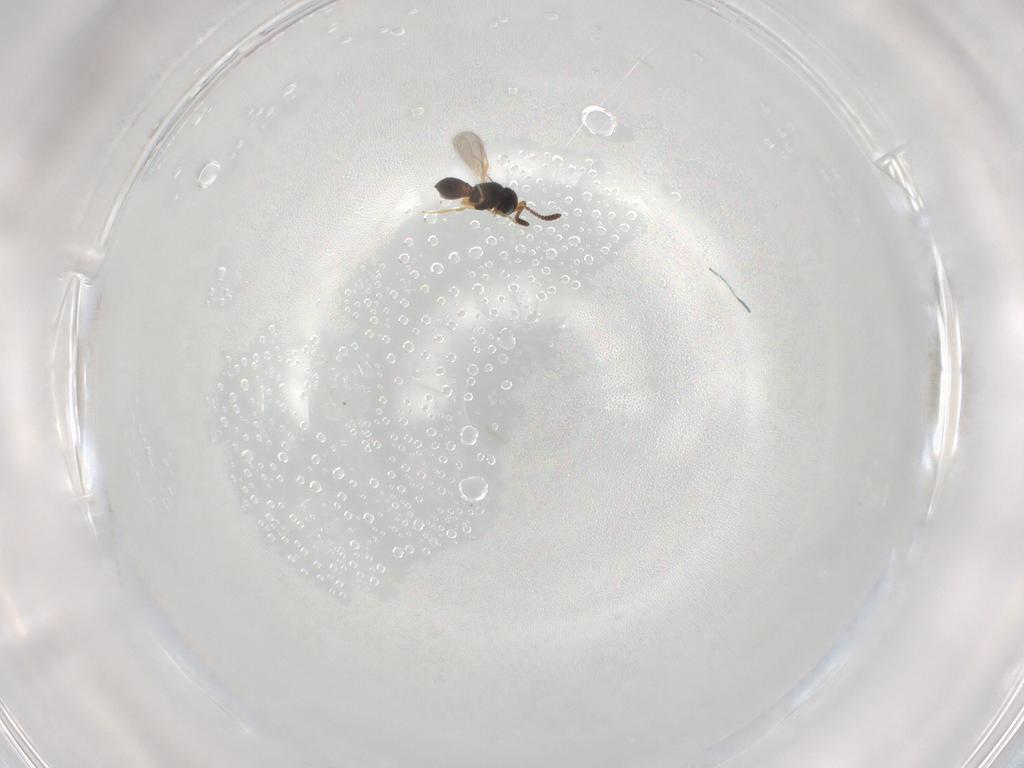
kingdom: Animalia
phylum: Arthropoda
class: Insecta
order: Hymenoptera
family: Scelionidae
